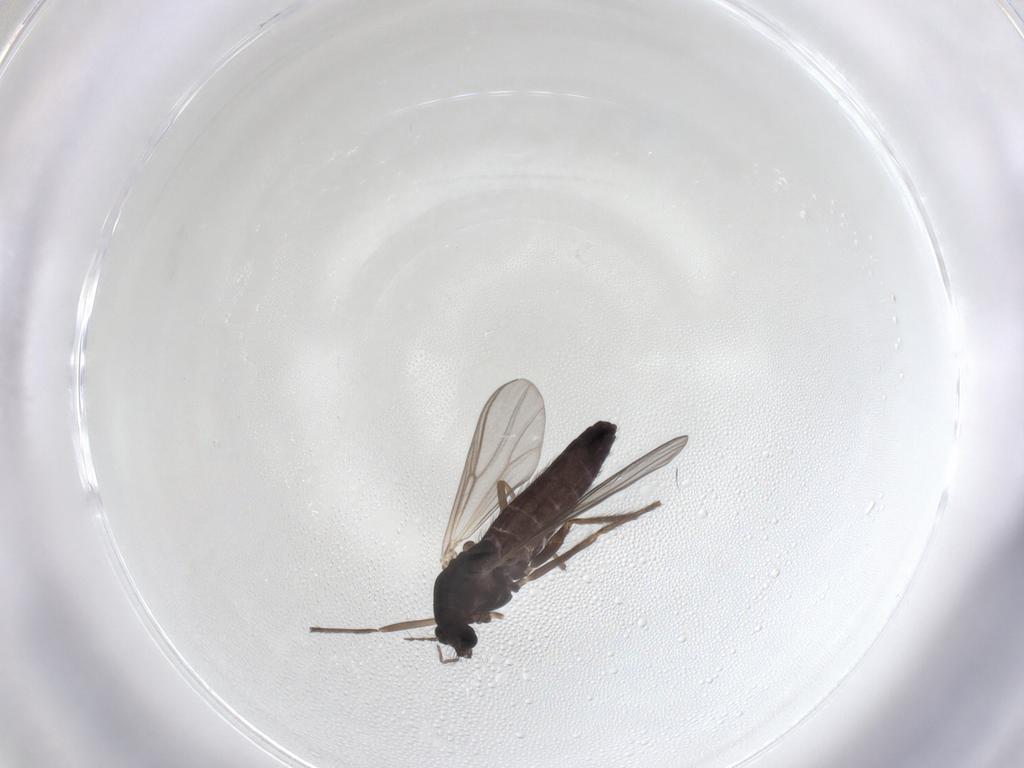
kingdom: Animalia
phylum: Arthropoda
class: Insecta
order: Diptera
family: Chironomidae
